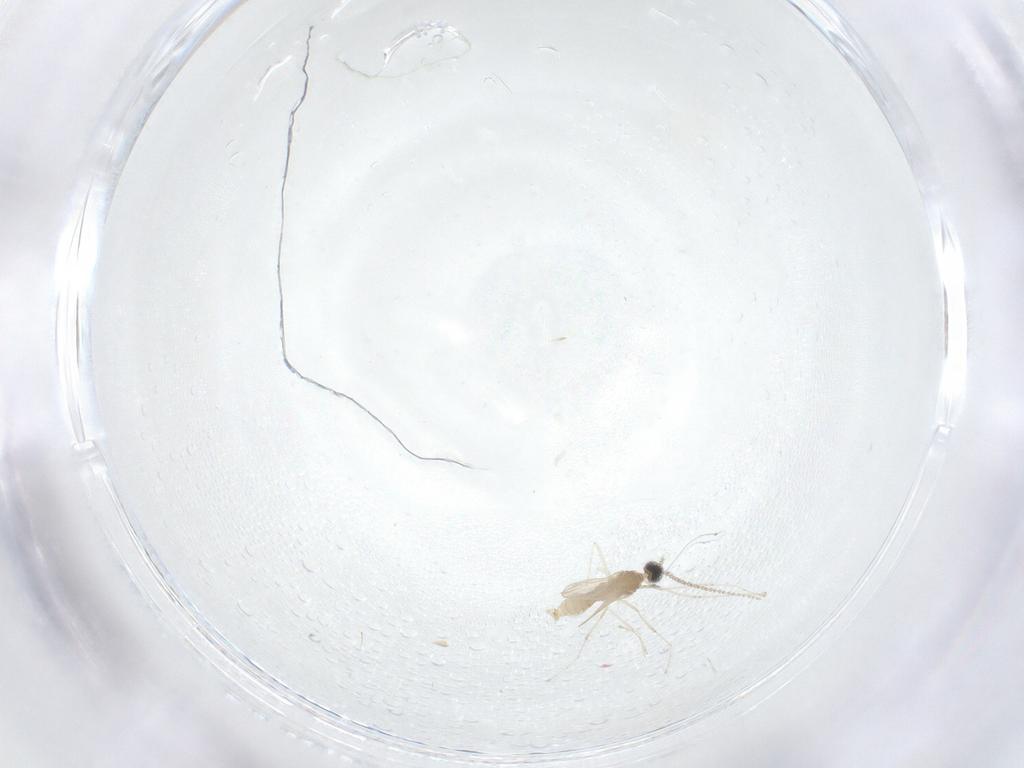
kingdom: Animalia
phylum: Arthropoda
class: Insecta
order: Diptera
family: Cecidomyiidae
